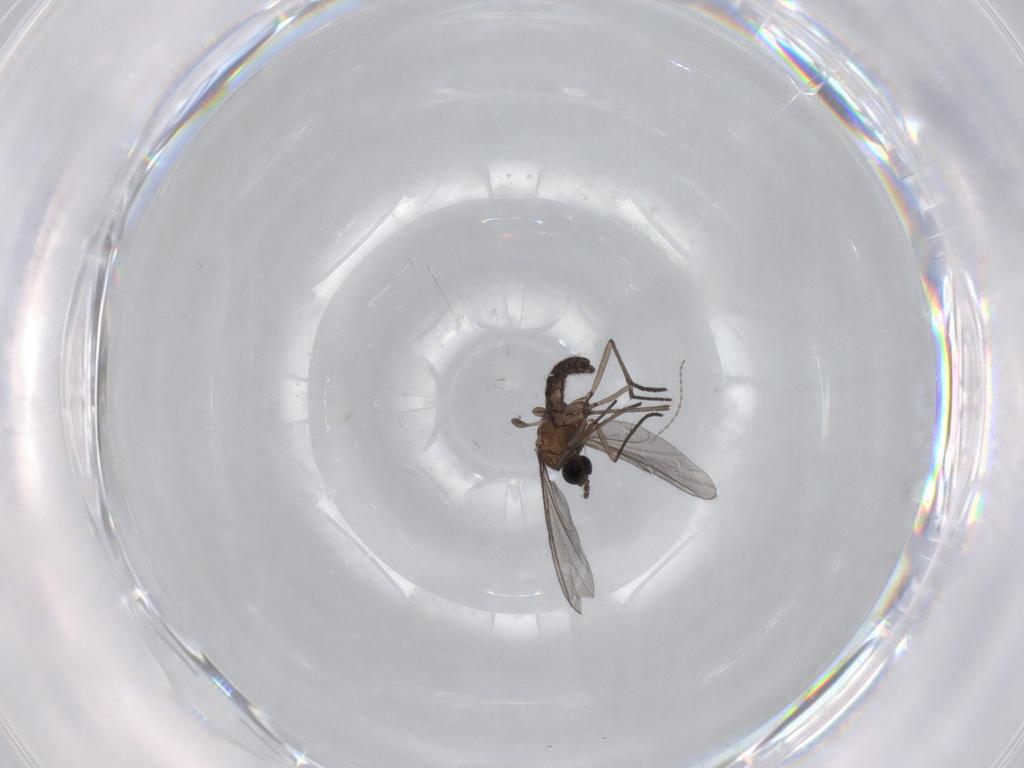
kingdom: Animalia
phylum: Arthropoda
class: Insecta
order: Diptera
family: Cecidomyiidae
